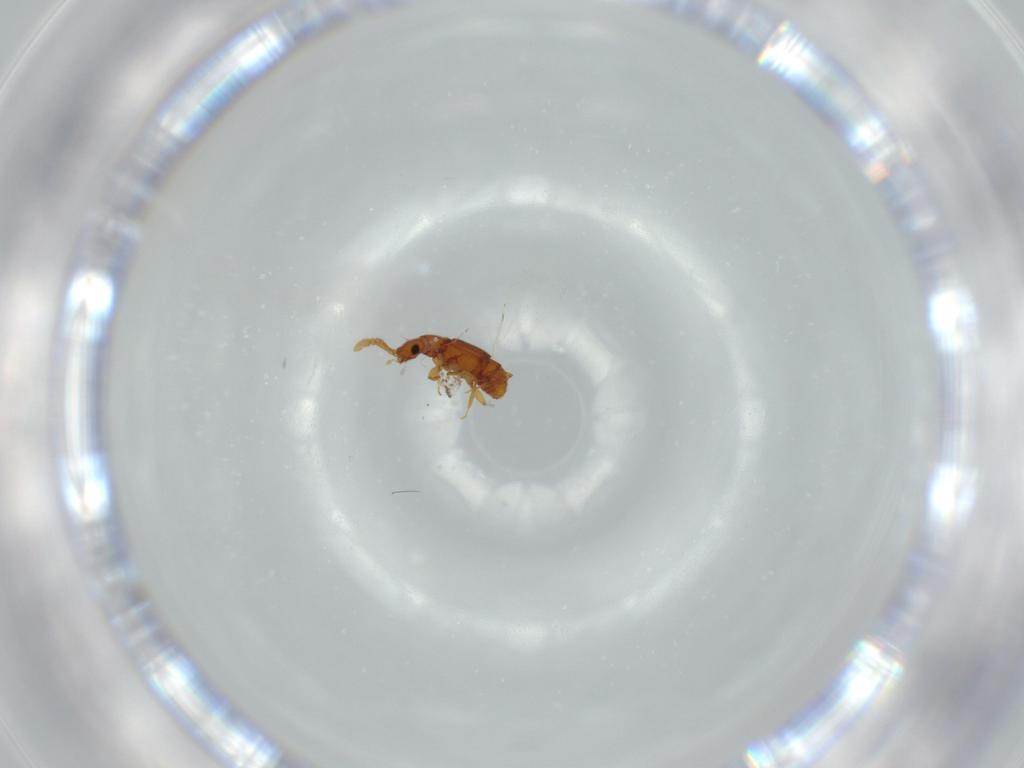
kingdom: Animalia
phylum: Arthropoda
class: Insecta
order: Coleoptera
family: Staphylinidae
